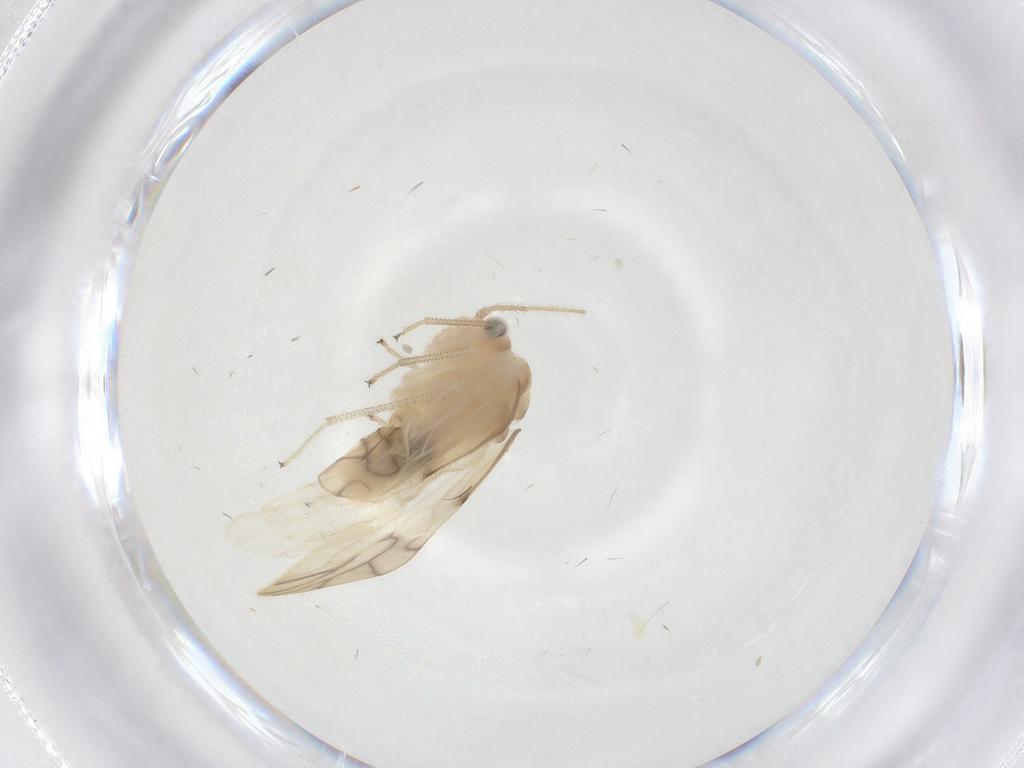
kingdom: Animalia
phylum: Arthropoda
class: Insecta
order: Psocodea
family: Caeciliusidae
